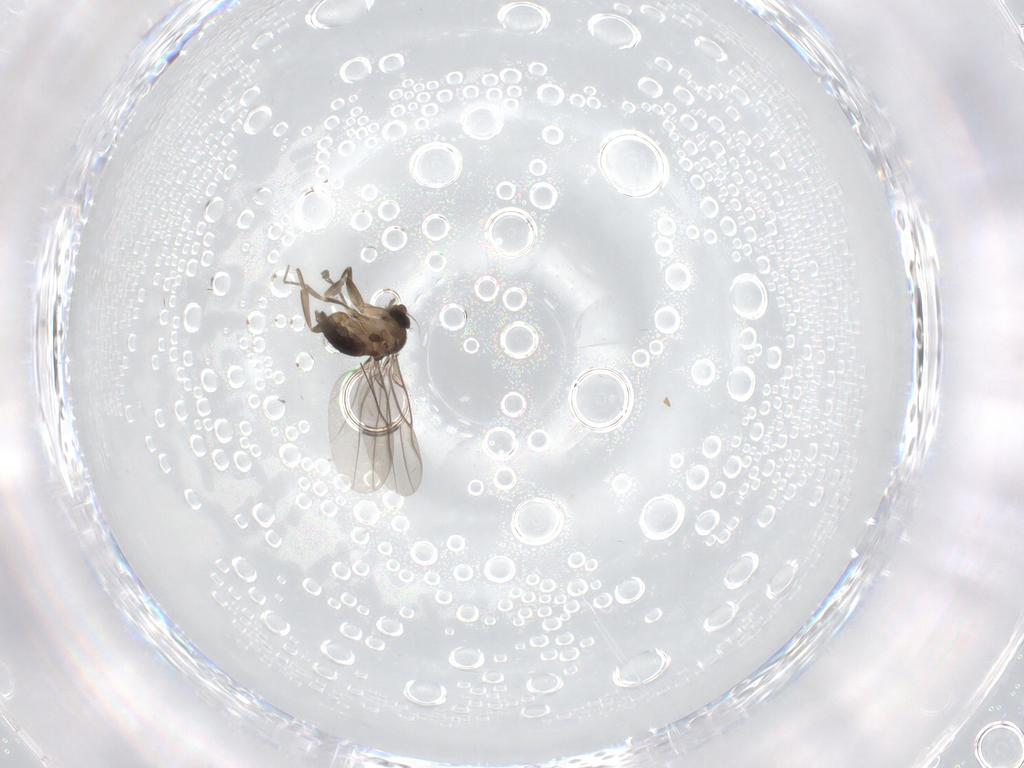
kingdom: Animalia
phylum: Arthropoda
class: Insecta
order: Diptera
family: Phoridae
